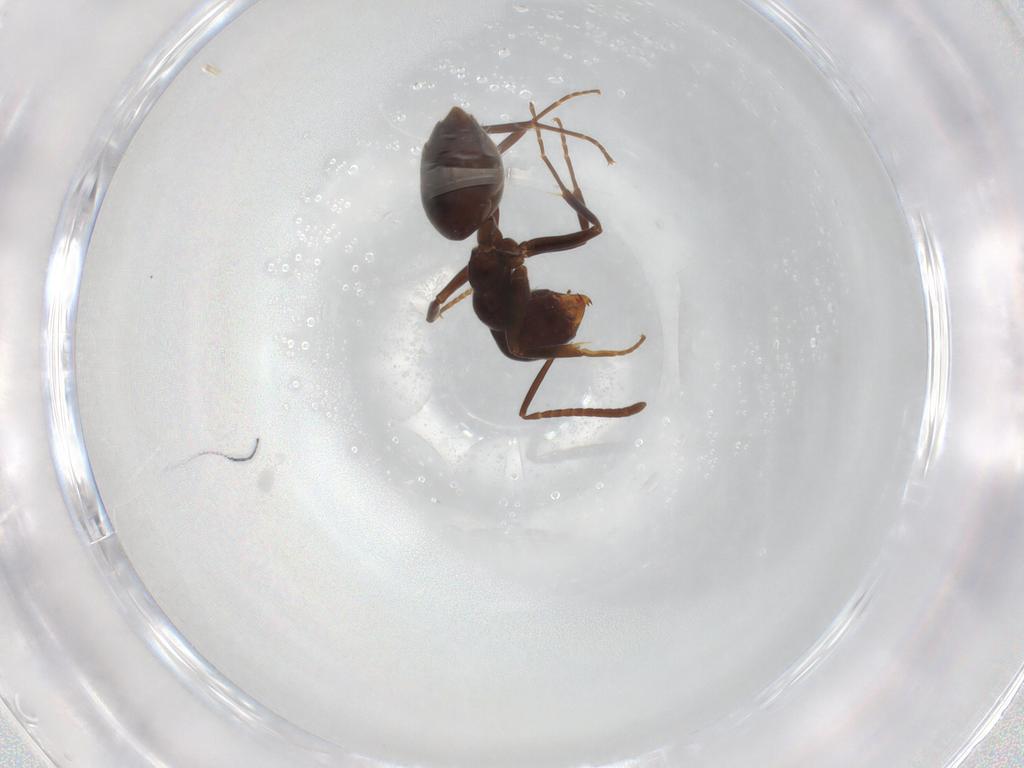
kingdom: Animalia
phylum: Arthropoda
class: Insecta
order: Hymenoptera
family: Formicidae
